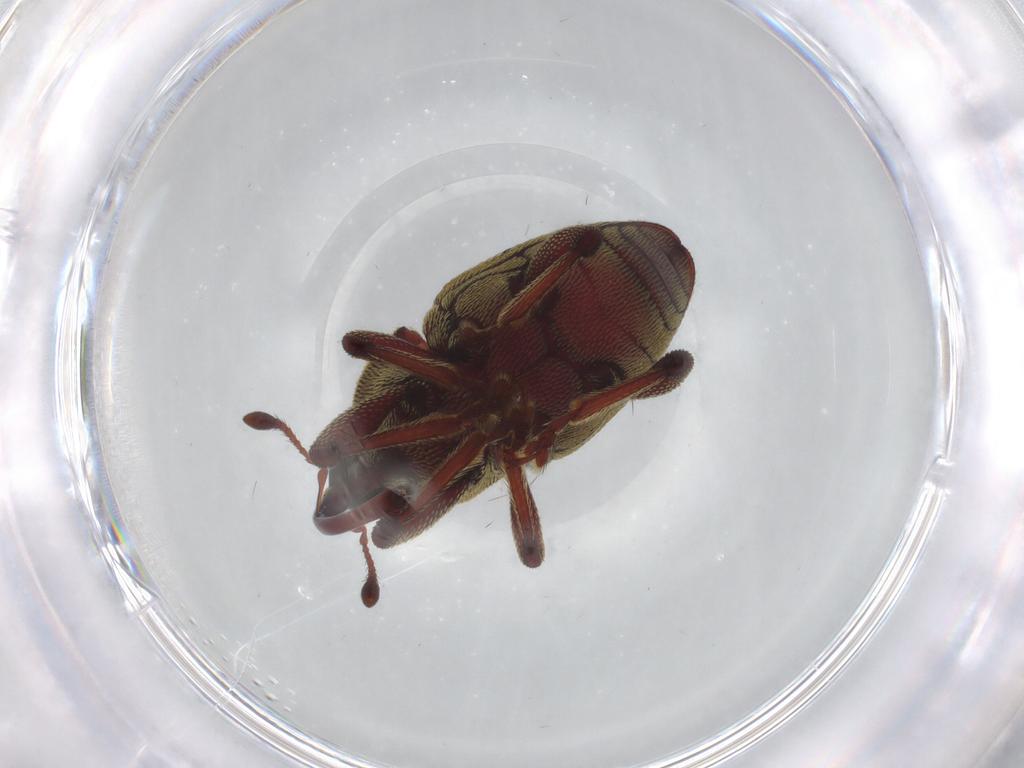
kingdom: Animalia
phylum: Arthropoda
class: Insecta
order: Coleoptera
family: Curculionidae
